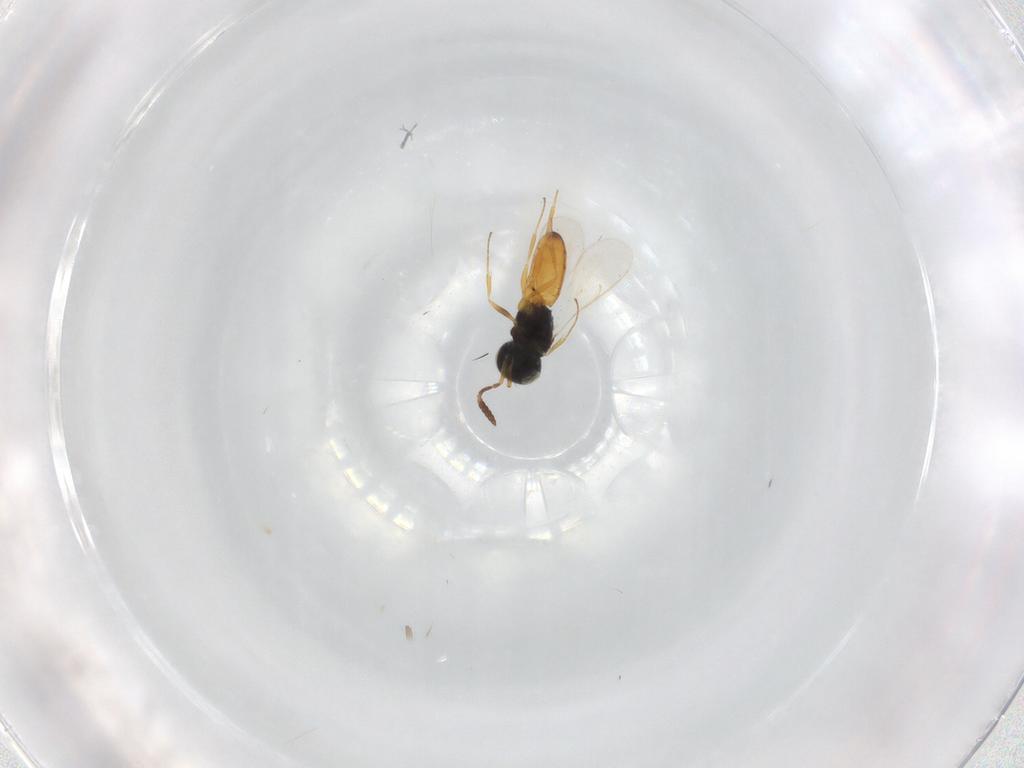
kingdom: Animalia
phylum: Arthropoda
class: Insecta
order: Hymenoptera
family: Scelionidae
